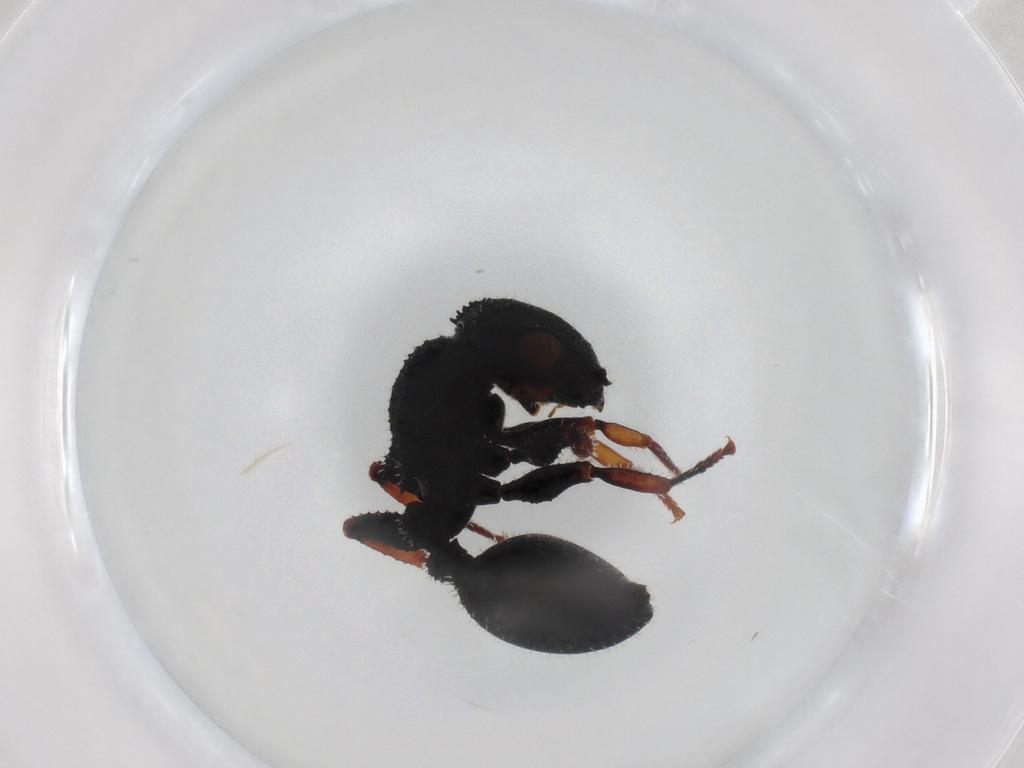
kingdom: Animalia
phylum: Arthropoda
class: Insecta
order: Hymenoptera
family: Formicidae
